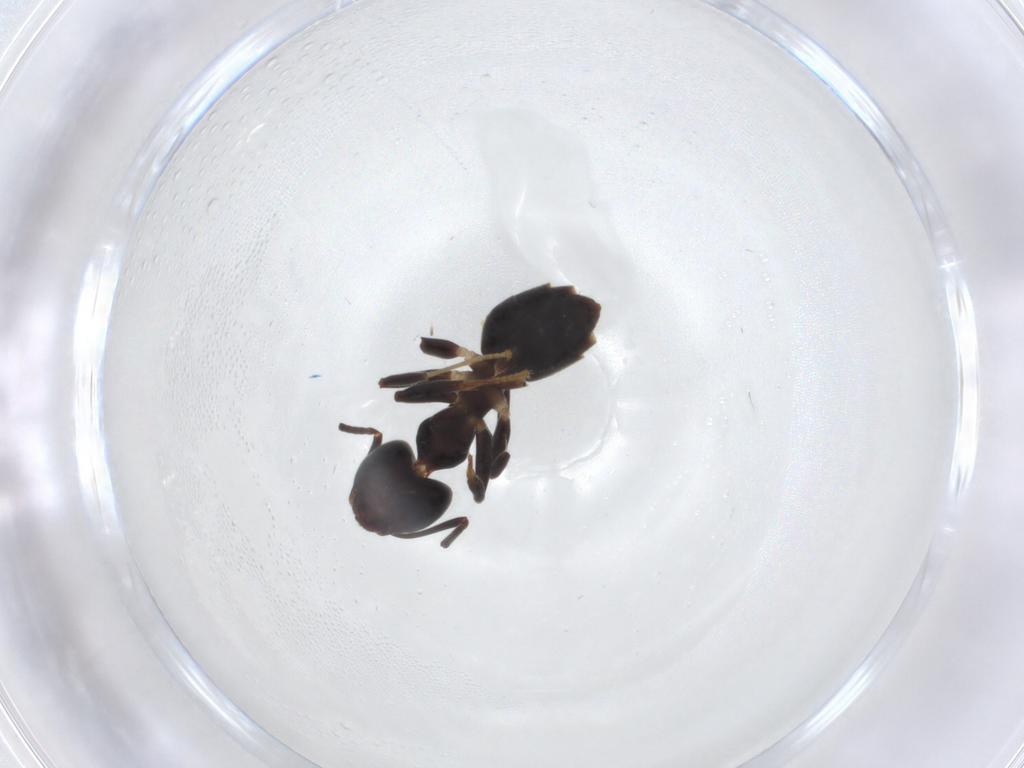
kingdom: Animalia
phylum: Arthropoda
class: Insecta
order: Hymenoptera
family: Formicidae
